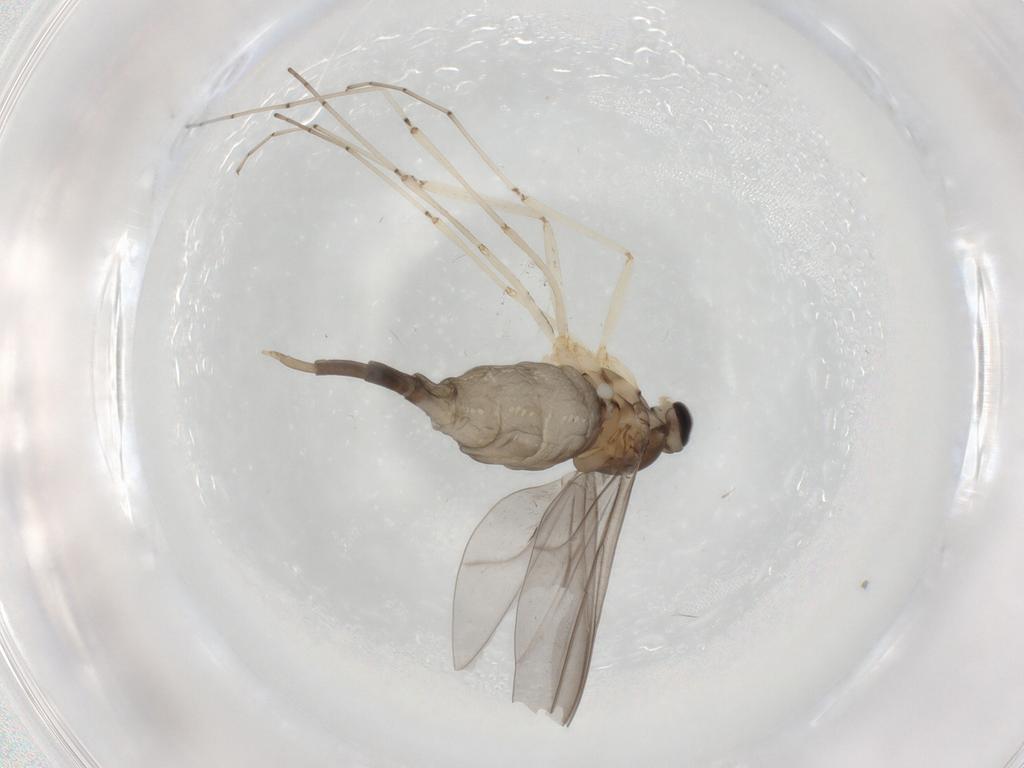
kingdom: Animalia
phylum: Arthropoda
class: Insecta
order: Diptera
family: Cecidomyiidae
